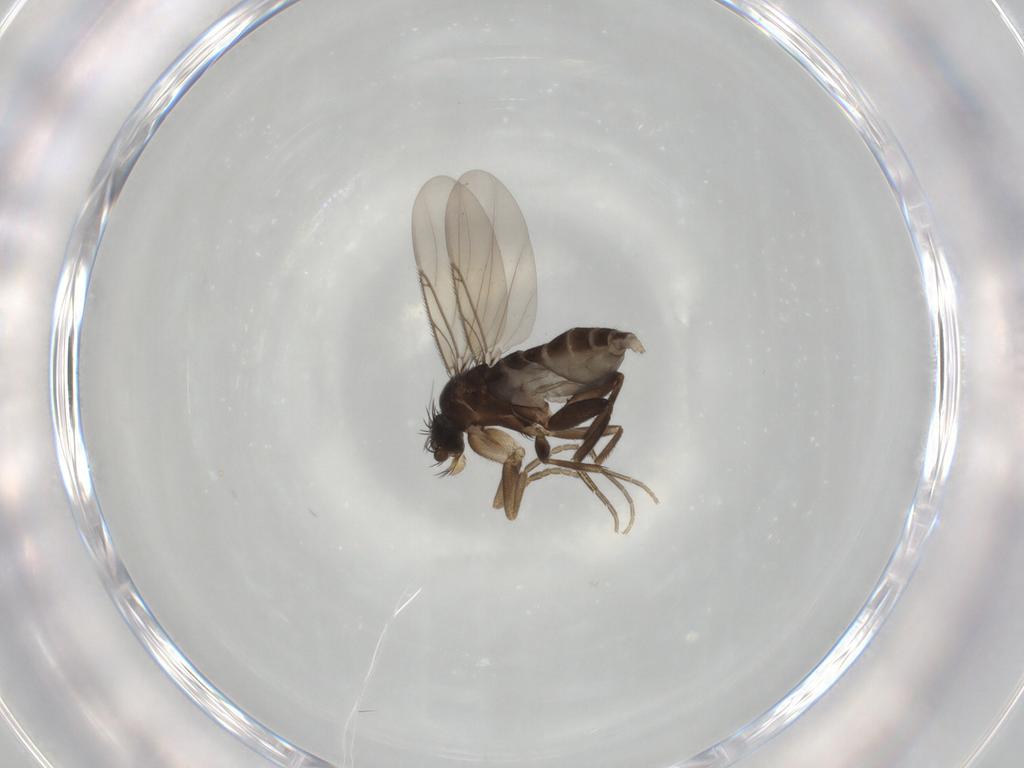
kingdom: Animalia
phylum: Arthropoda
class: Insecta
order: Diptera
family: Phoridae
